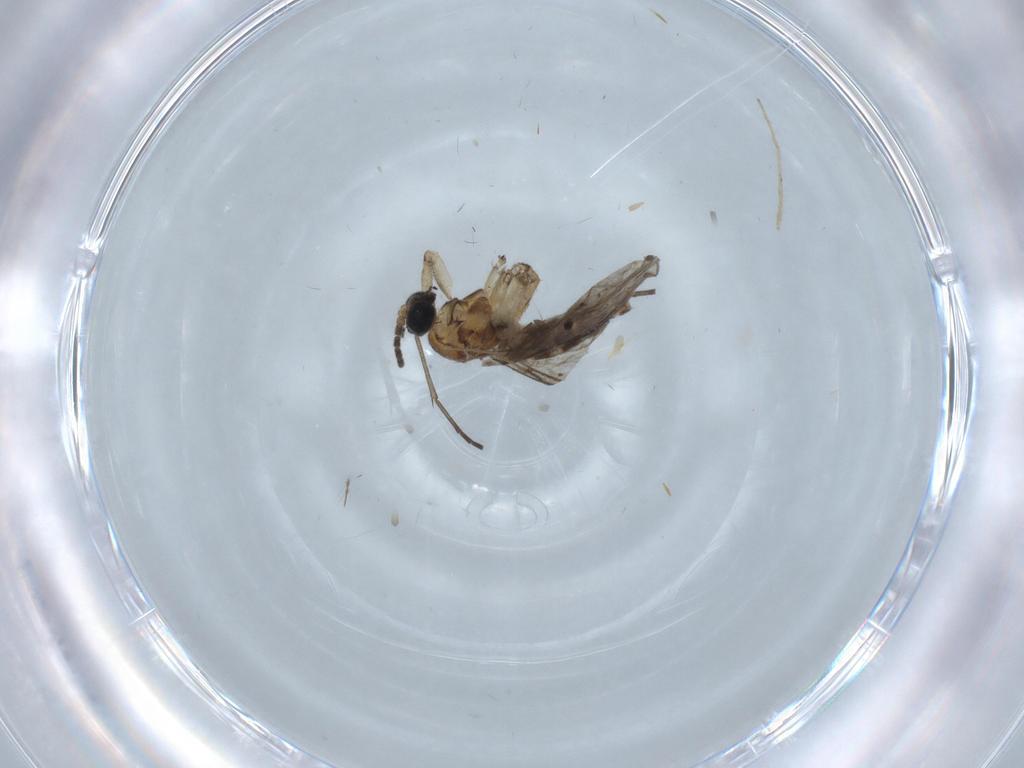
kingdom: Animalia
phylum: Arthropoda
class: Insecta
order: Diptera
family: Sciaridae
